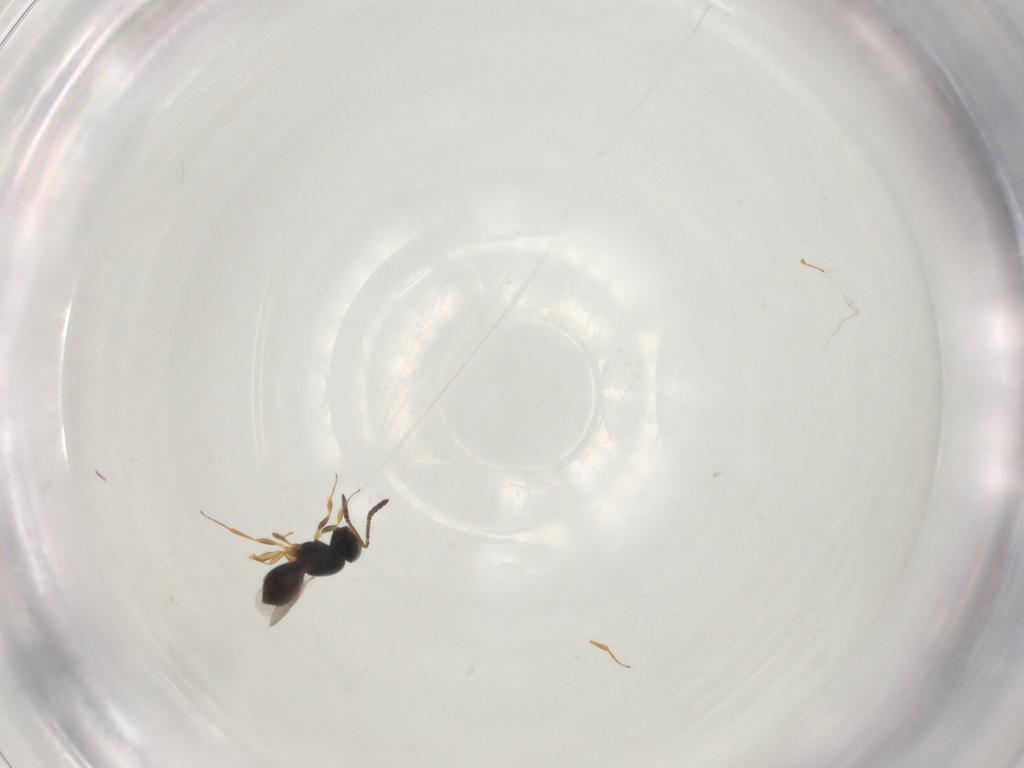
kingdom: Animalia
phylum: Arthropoda
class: Insecta
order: Hymenoptera
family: Scelionidae
